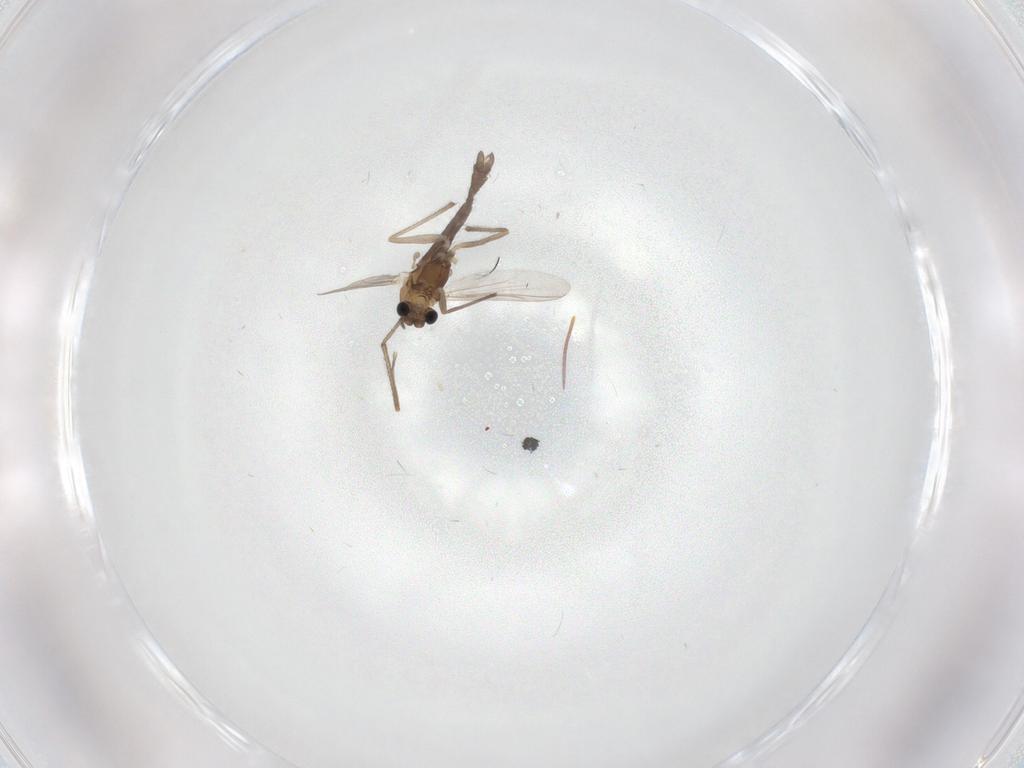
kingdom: Animalia
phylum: Arthropoda
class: Insecta
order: Diptera
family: Chironomidae
